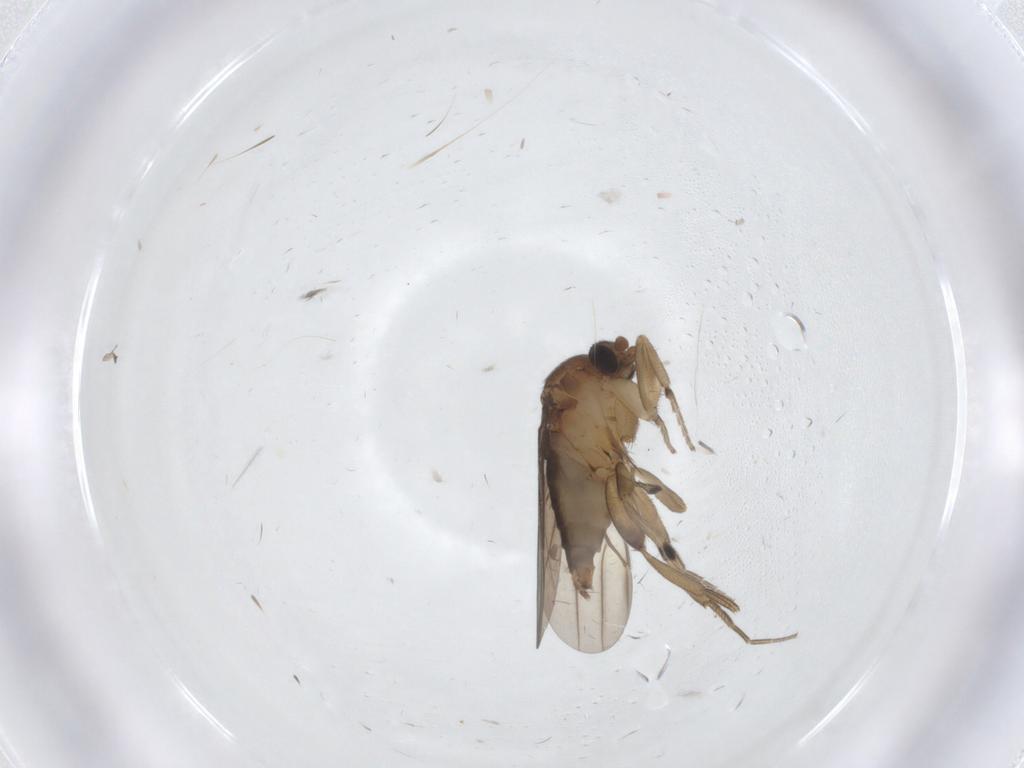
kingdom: Animalia
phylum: Arthropoda
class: Insecta
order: Diptera
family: Phoridae
